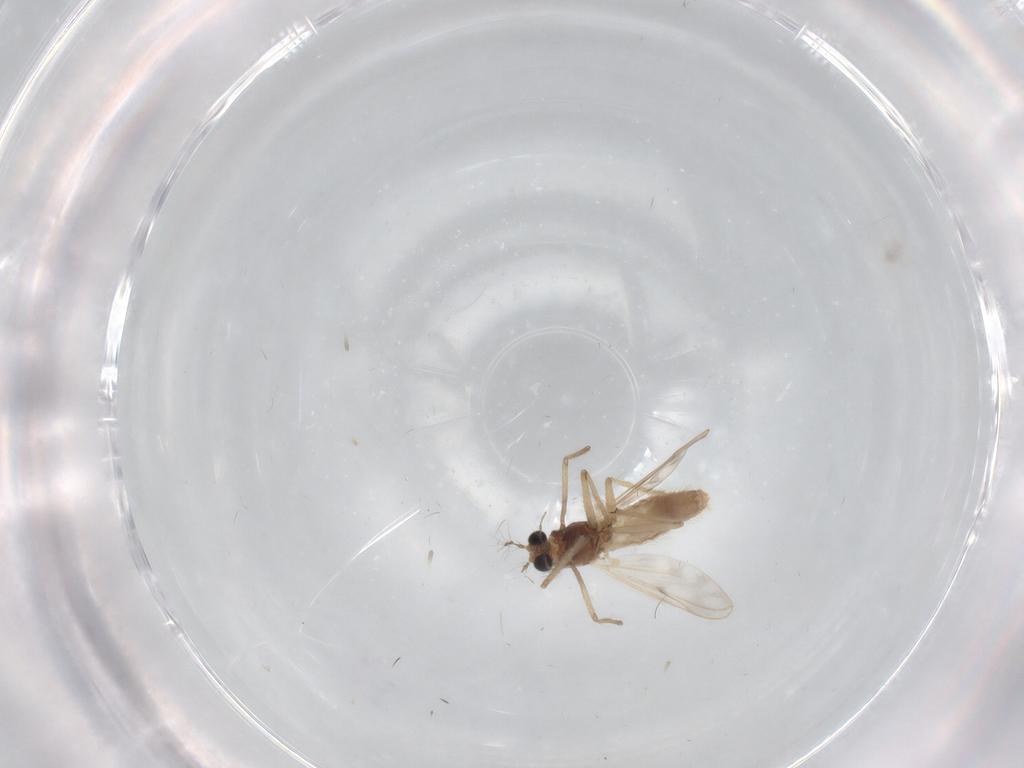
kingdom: Animalia
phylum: Arthropoda
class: Insecta
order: Diptera
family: Chironomidae
